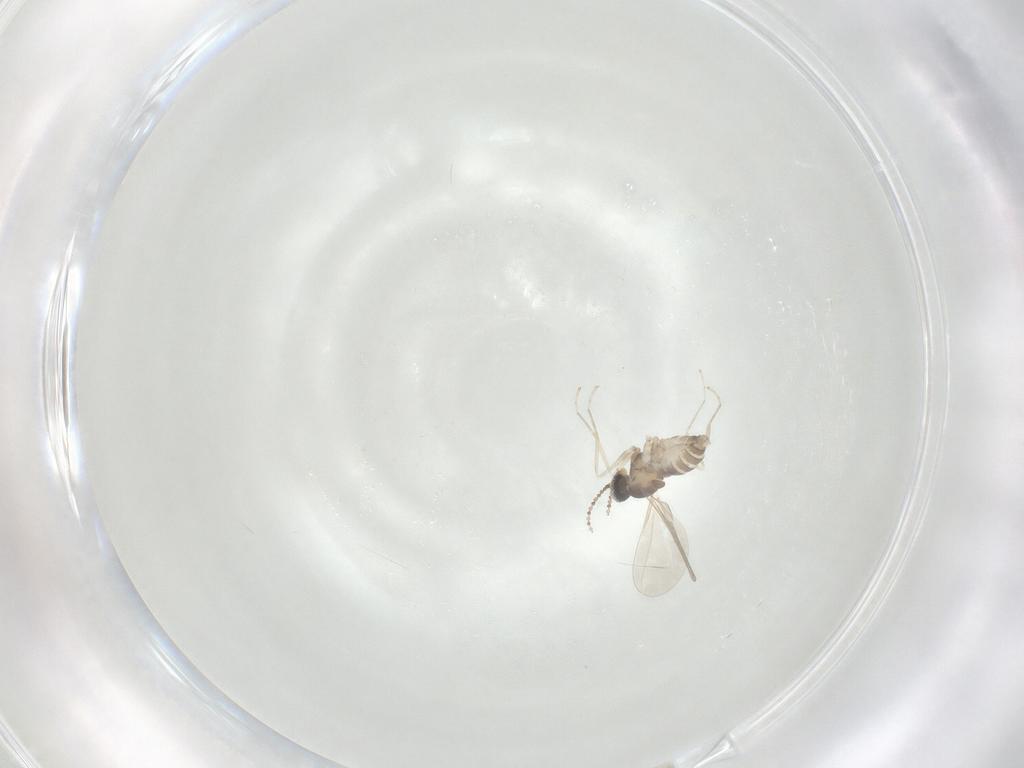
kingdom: Animalia
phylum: Arthropoda
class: Insecta
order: Diptera
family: Cecidomyiidae
